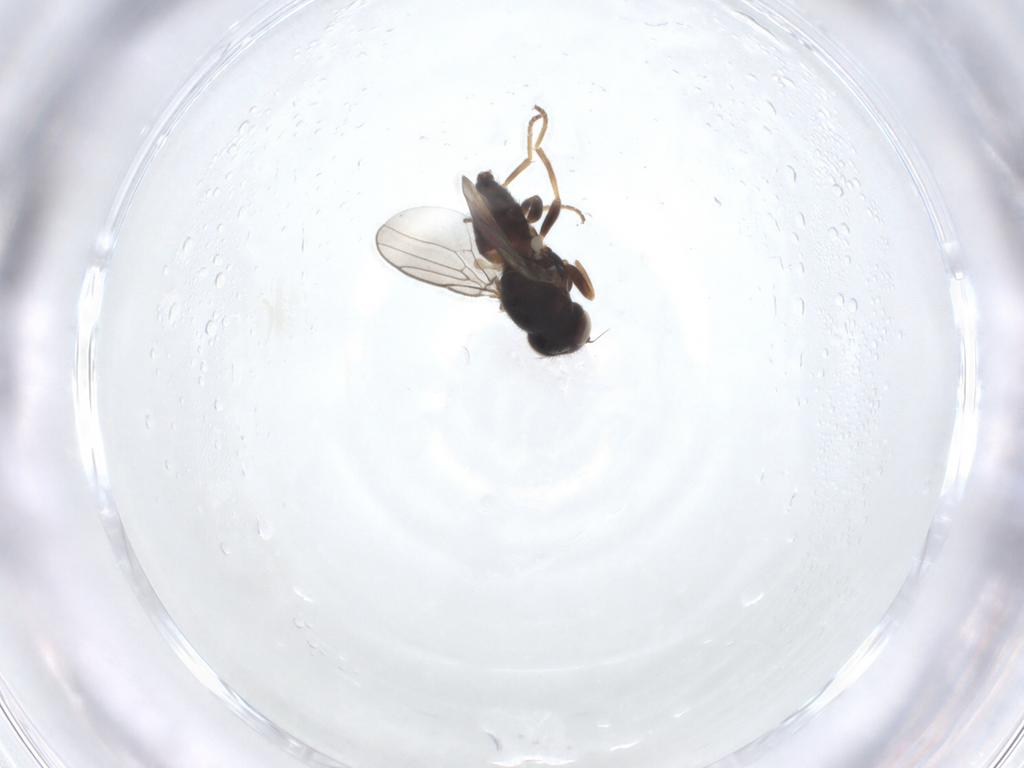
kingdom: Animalia
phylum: Arthropoda
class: Insecta
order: Diptera
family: Chloropidae
